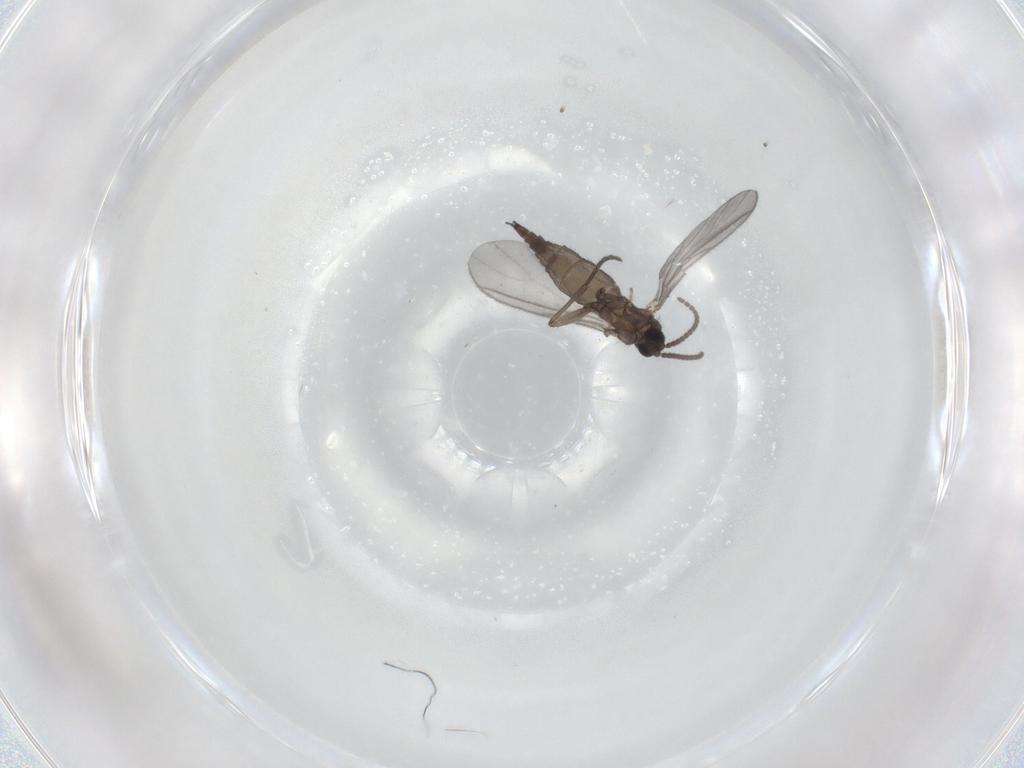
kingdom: Animalia
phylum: Arthropoda
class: Insecta
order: Diptera
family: Sciaridae
